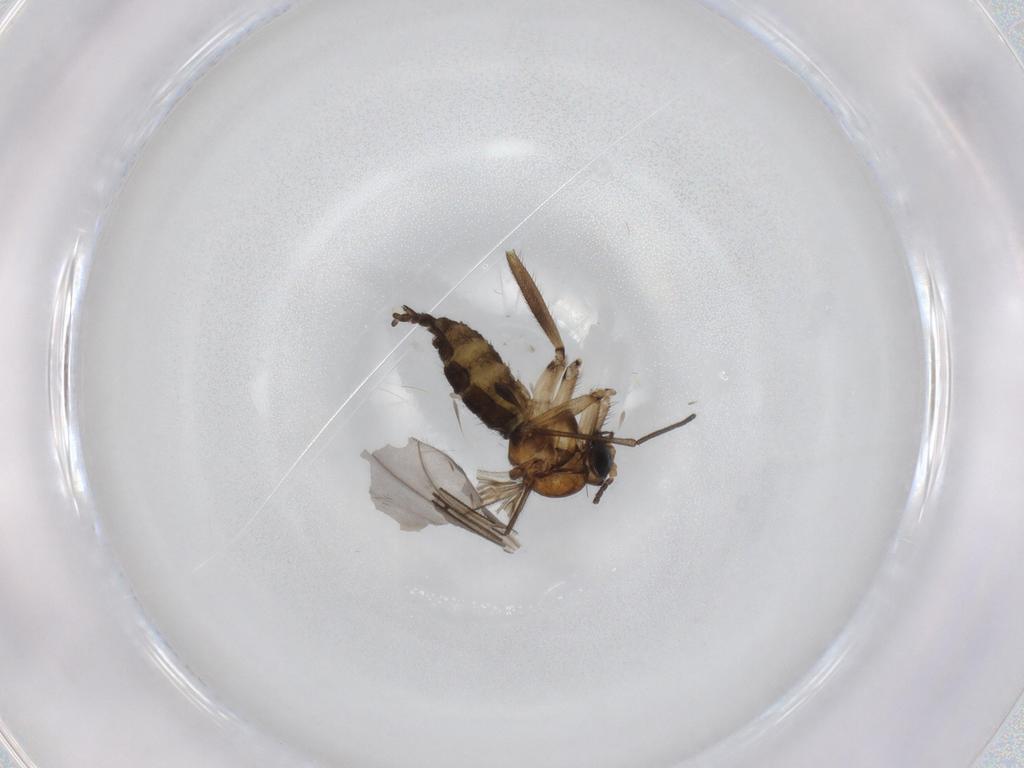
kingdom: Animalia
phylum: Arthropoda
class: Insecta
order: Diptera
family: Sciaridae
